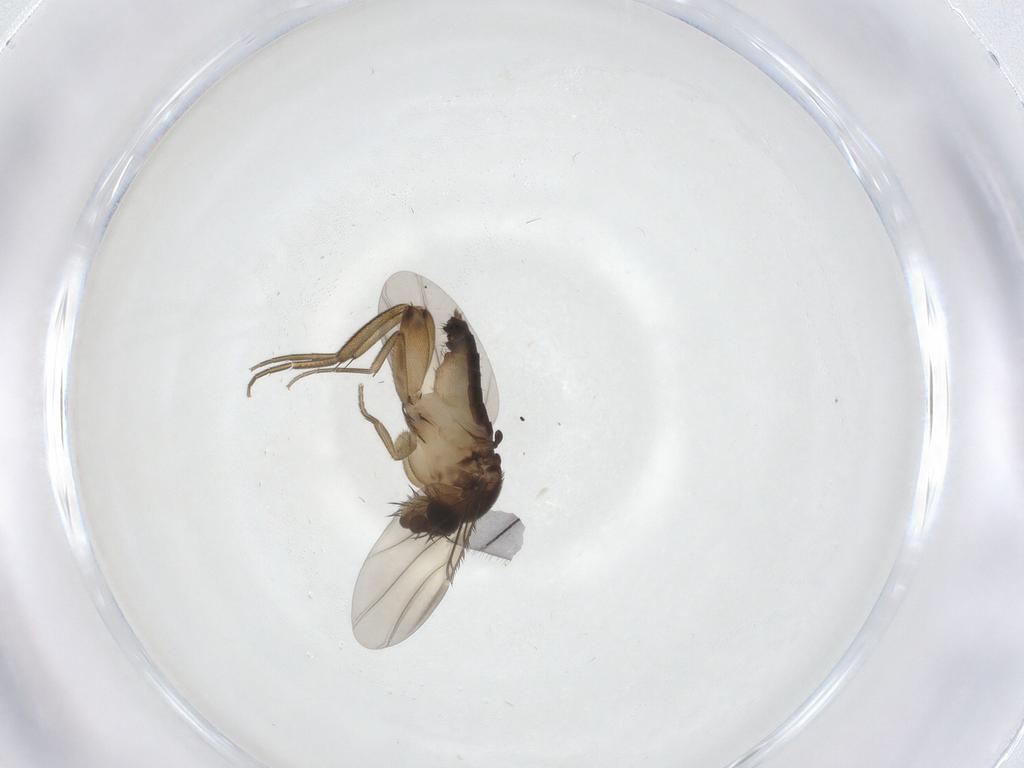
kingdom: Animalia
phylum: Arthropoda
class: Insecta
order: Diptera
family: Phoridae
